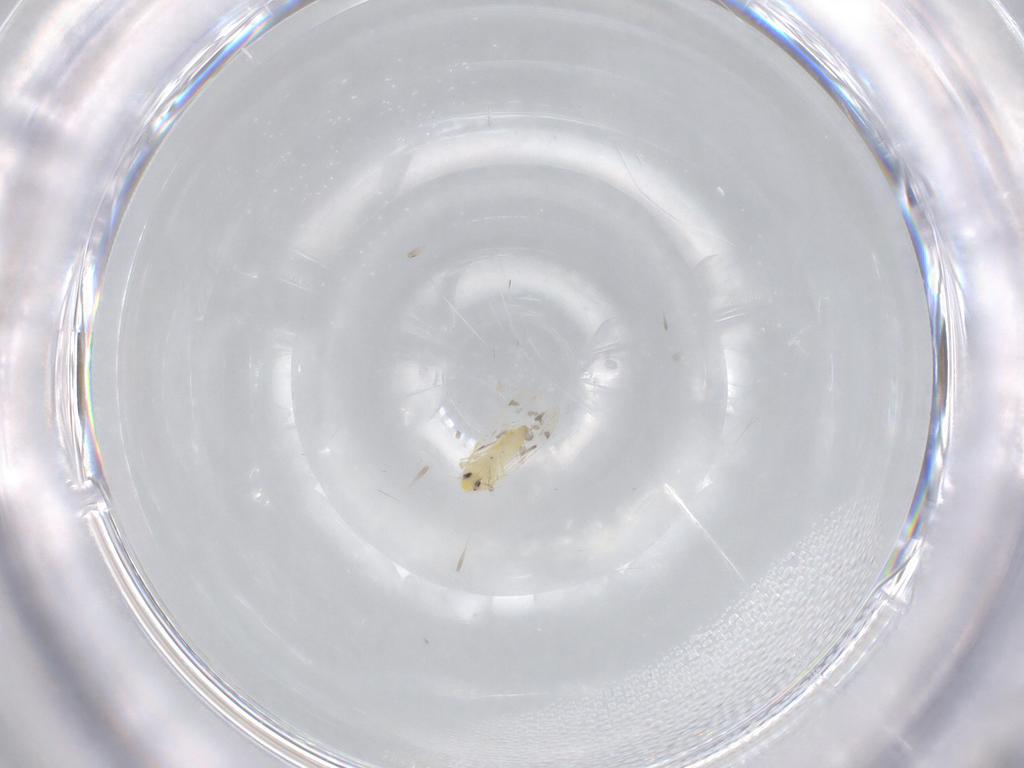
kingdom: Animalia
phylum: Arthropoda
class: Insecta
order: Hemiptera
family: Aleyrodidae
